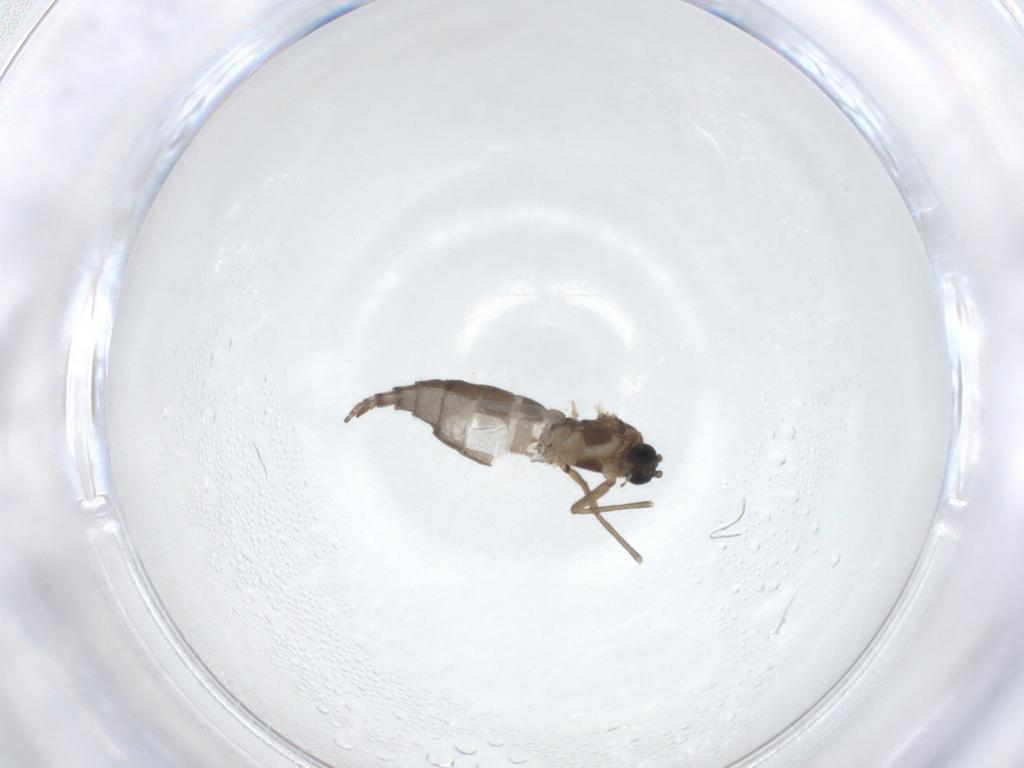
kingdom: Animalia
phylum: Arthropoda
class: Insecta
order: Diptera
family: Sciaridae
